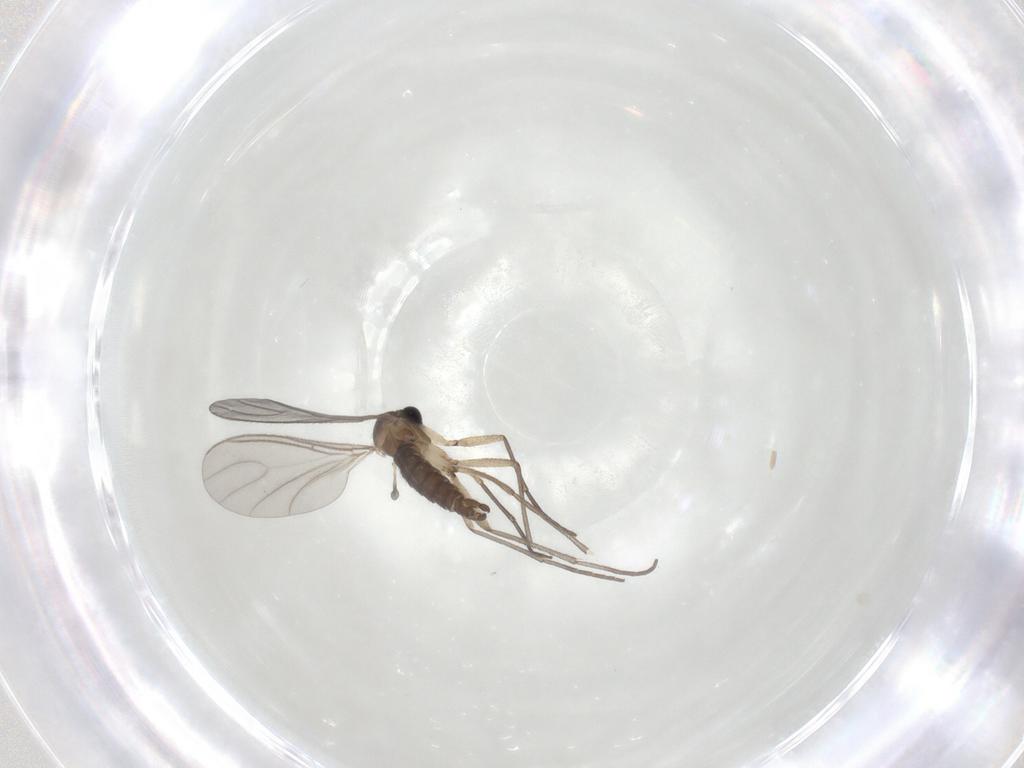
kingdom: Animalia
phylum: Arthropoda
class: Insecta
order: Diptera
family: Sciaridae
